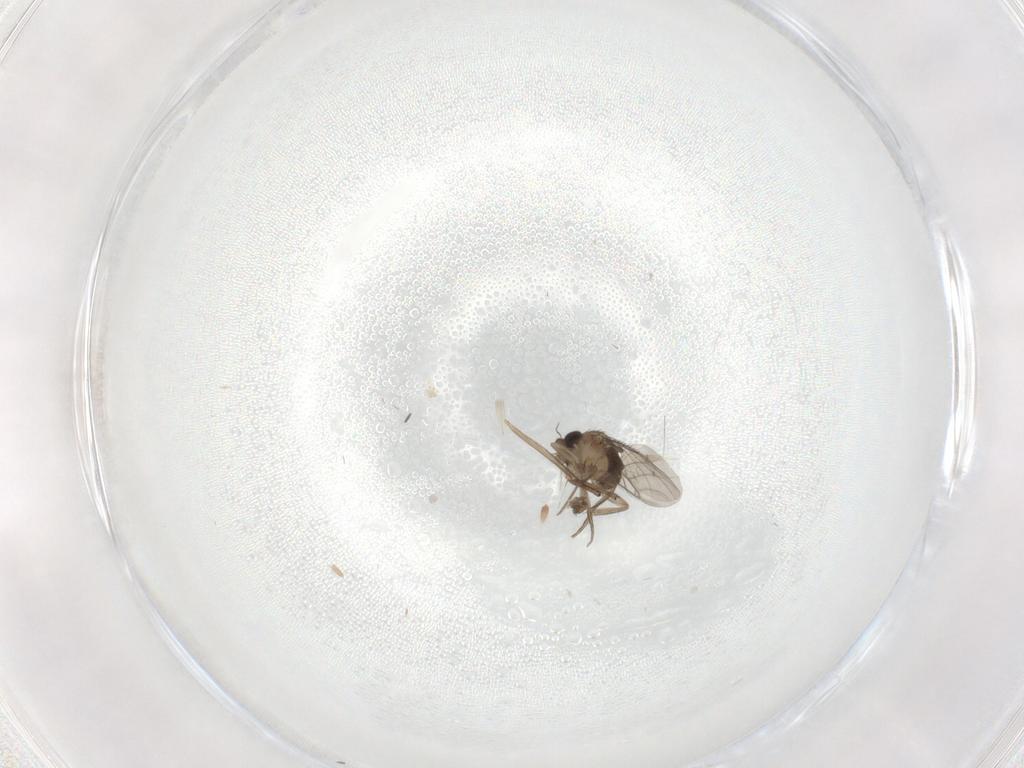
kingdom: Animalia
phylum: Arthropoda
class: Insecta
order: Diptera
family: Phoridae
